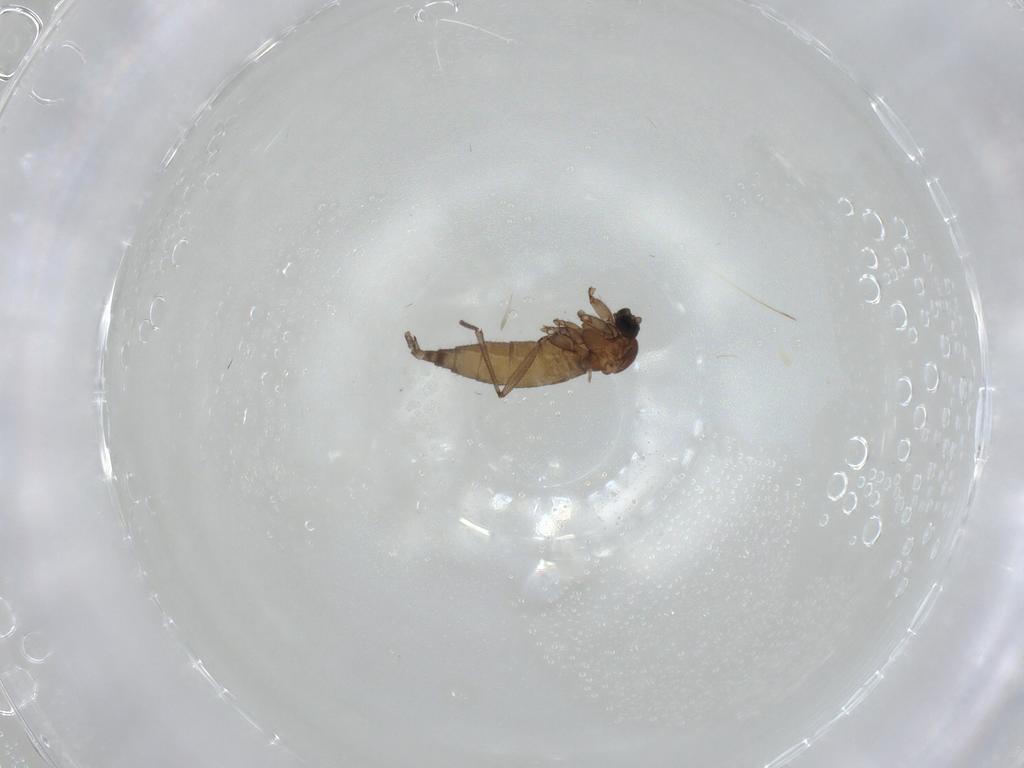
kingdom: Animalia
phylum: Arthropoda
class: Insecta
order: Diptera
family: Sciaridae
